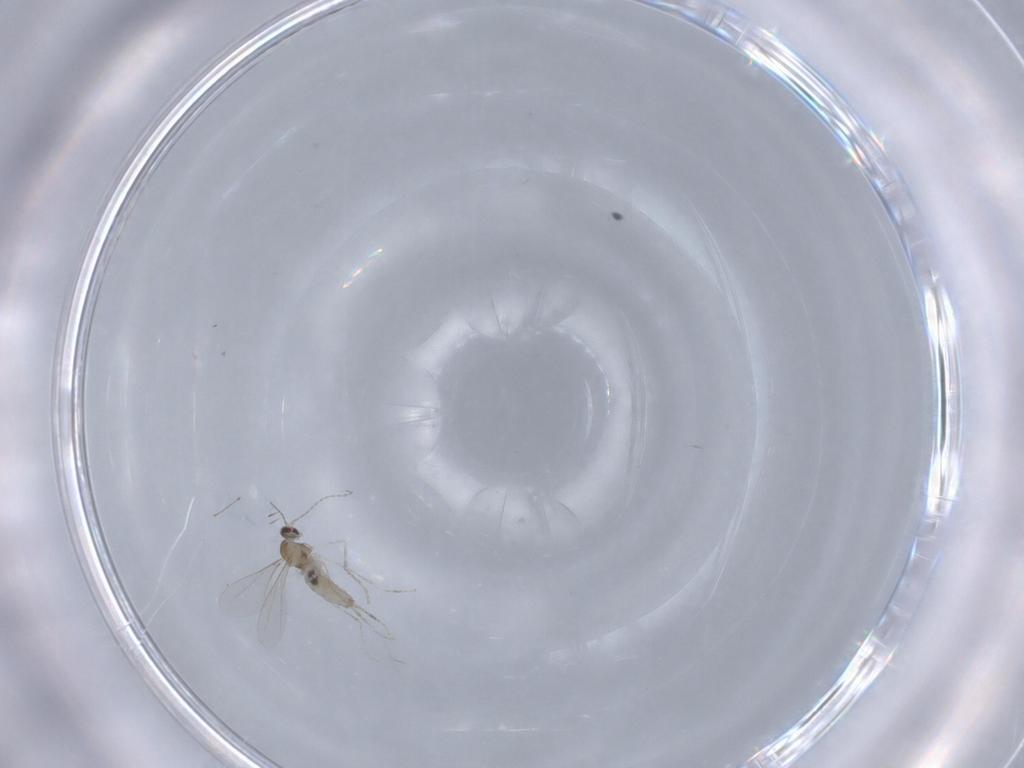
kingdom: Animalia
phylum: Arthropoda
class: Insecta
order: Diptera
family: Cecidomyiidae
